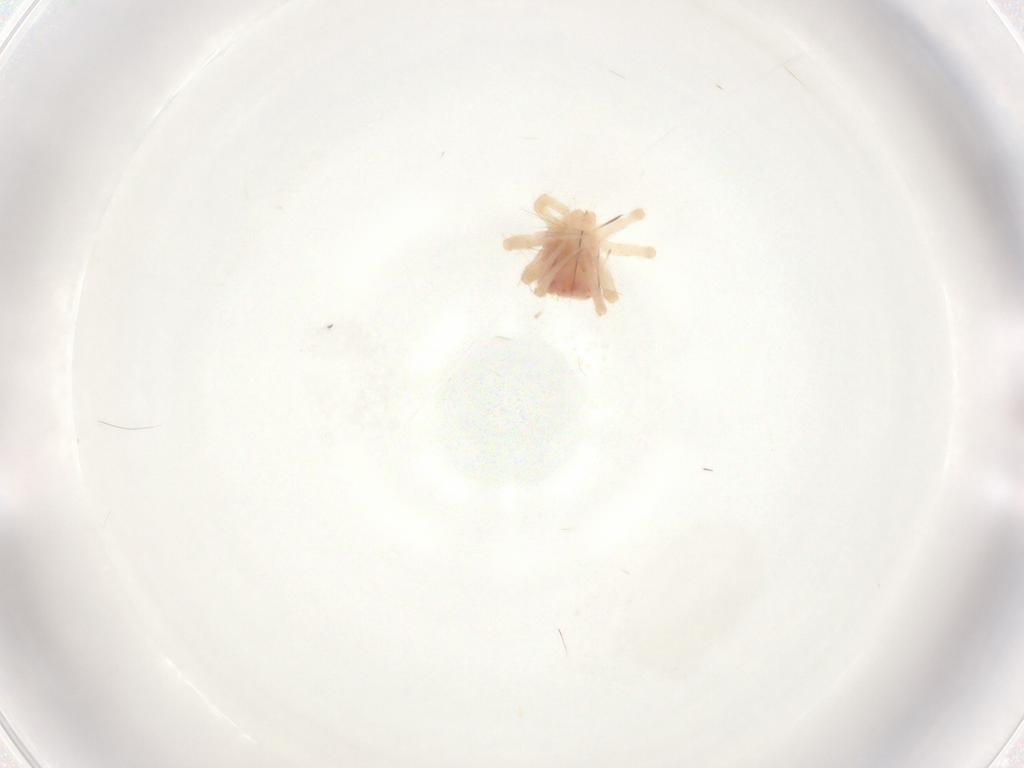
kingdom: Animalia
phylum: Arthropoda
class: Arachnida
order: Trombidiformes
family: Anystidae
